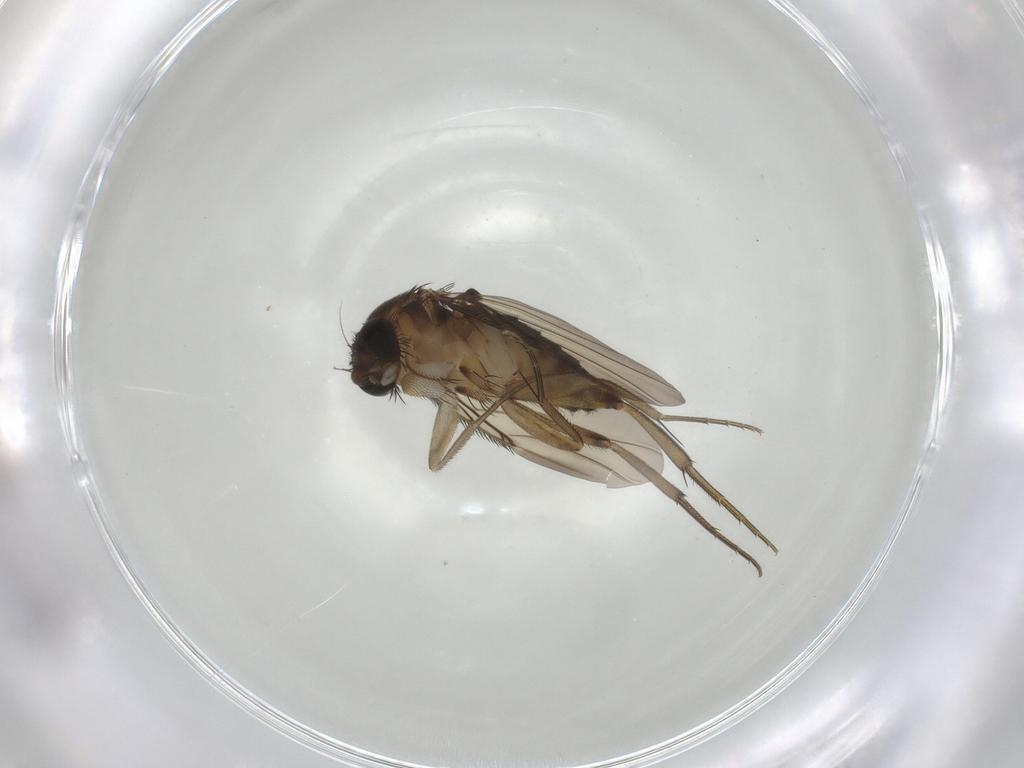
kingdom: Animalia
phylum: Arthropoda
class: Insecta
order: Diptera
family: Phoridae
